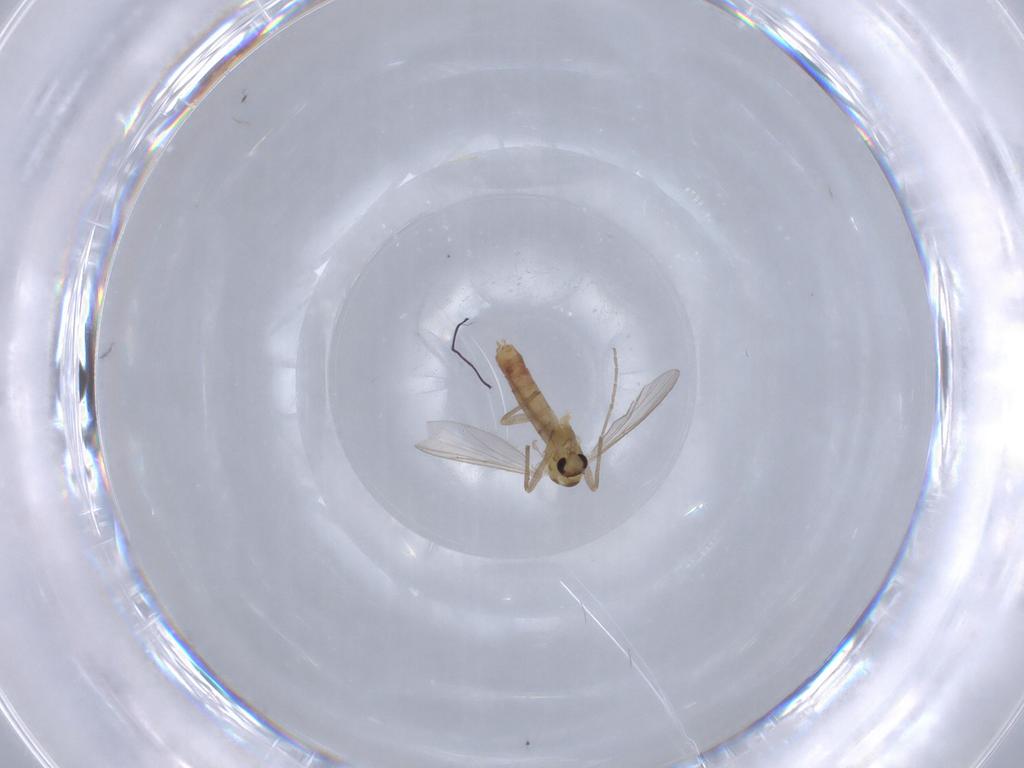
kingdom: Animalia
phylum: Arthropoda
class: Insecta
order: Diptera
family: Chironomidae
